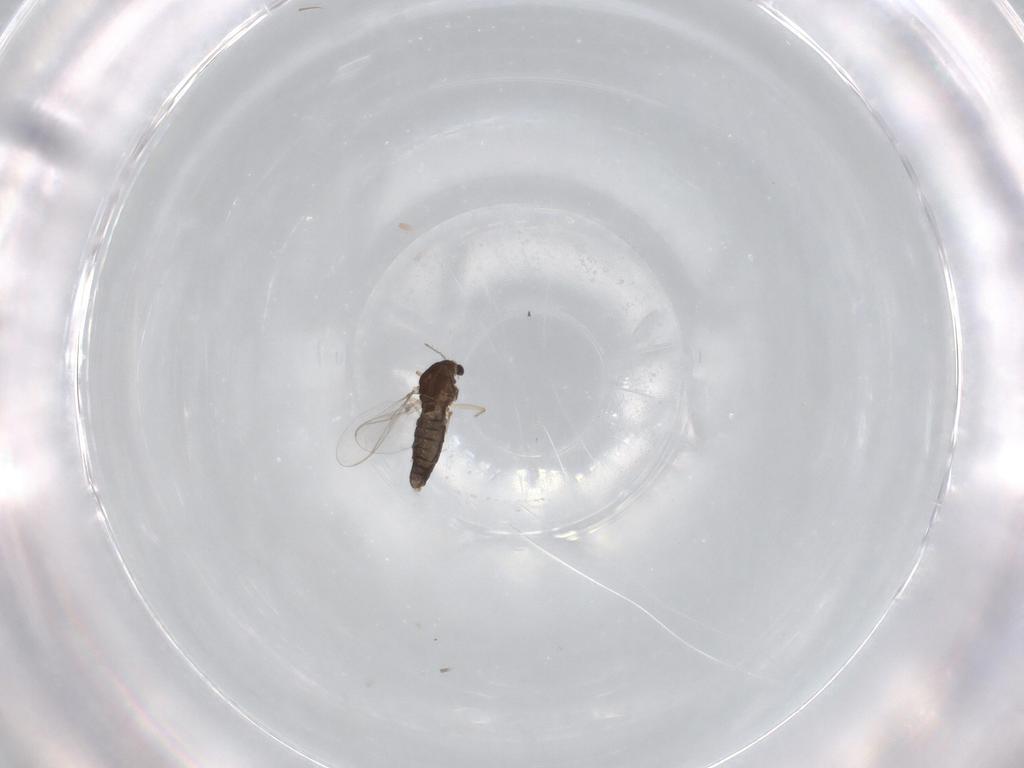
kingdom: Animalia
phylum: Arthropoda
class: Insecta
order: Diptera
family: Chironomidae
